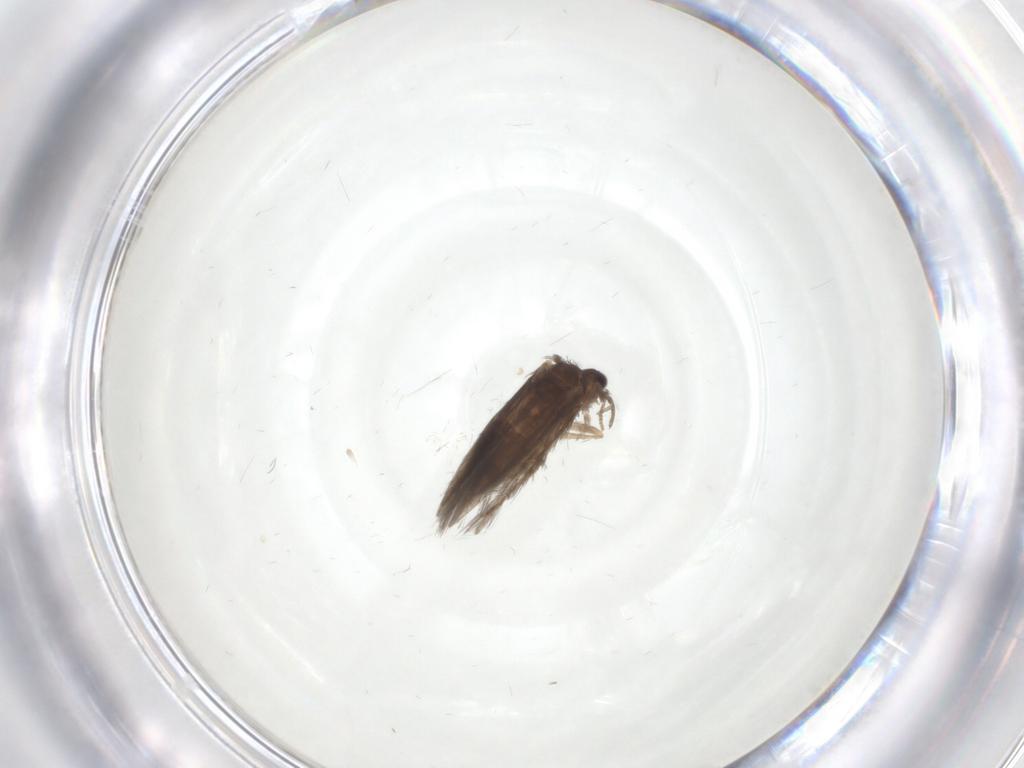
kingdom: Animalia
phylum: Arthropoda
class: Insecta
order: Trichoptera
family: Hydroptilidae
